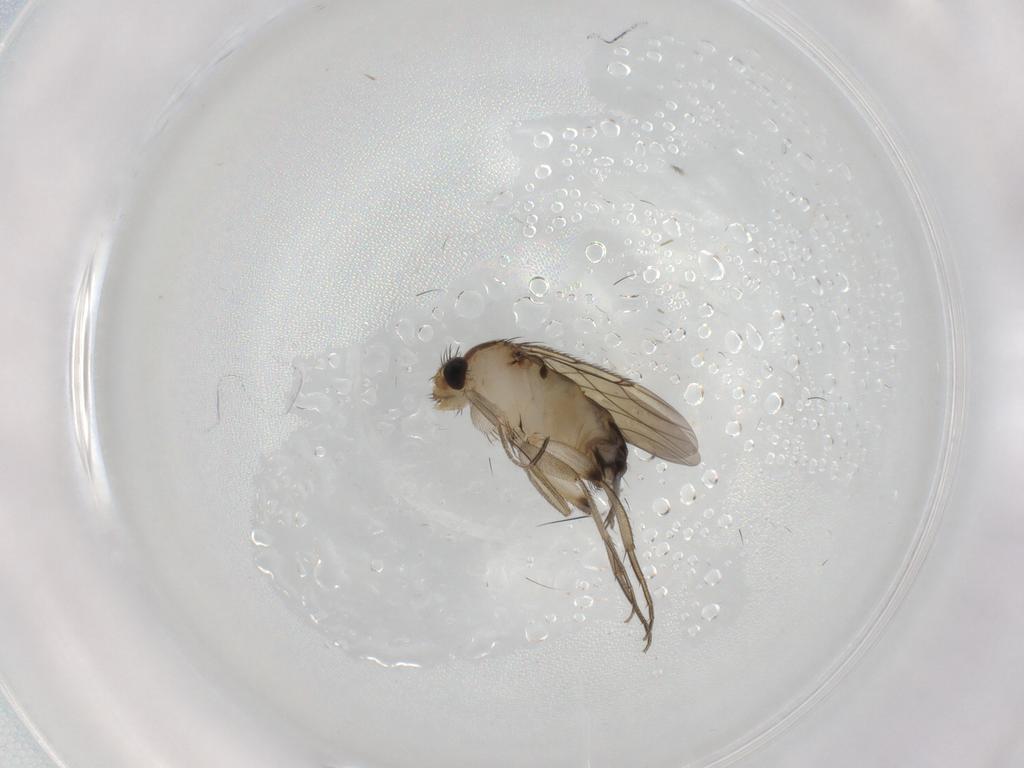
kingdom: Animalia
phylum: Arthropoda
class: Insecta
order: Diptera
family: Phoridae
